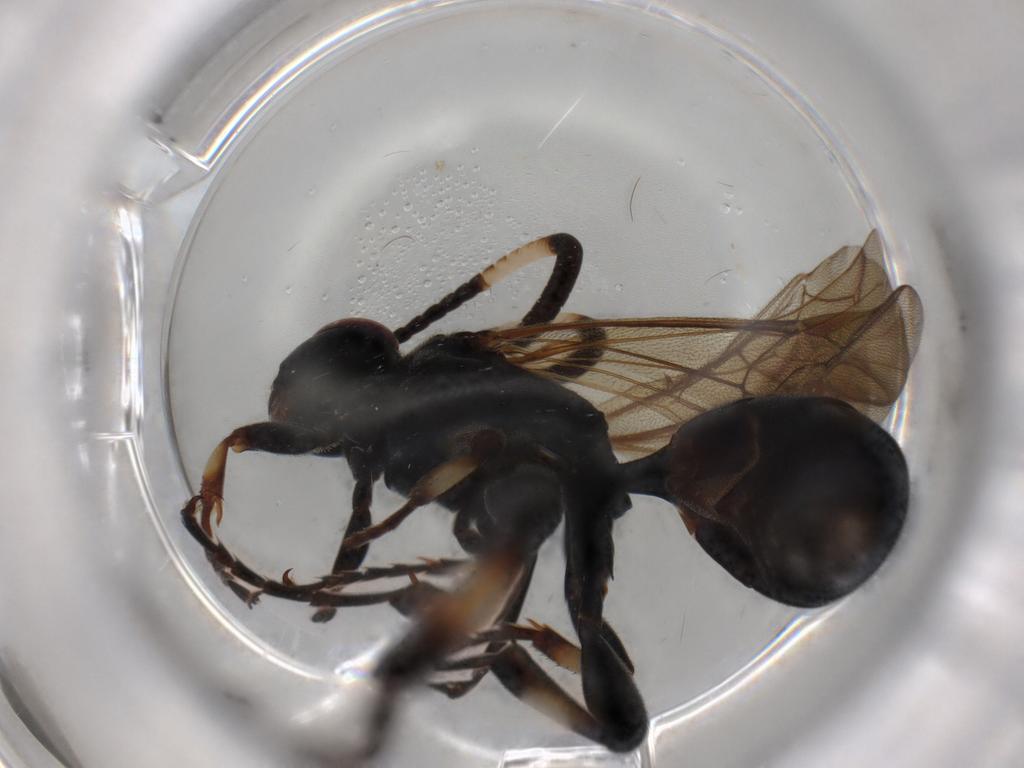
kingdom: Animalia
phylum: Arthropoda
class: Insecta
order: Hymenoptera
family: Ichneumonidae
